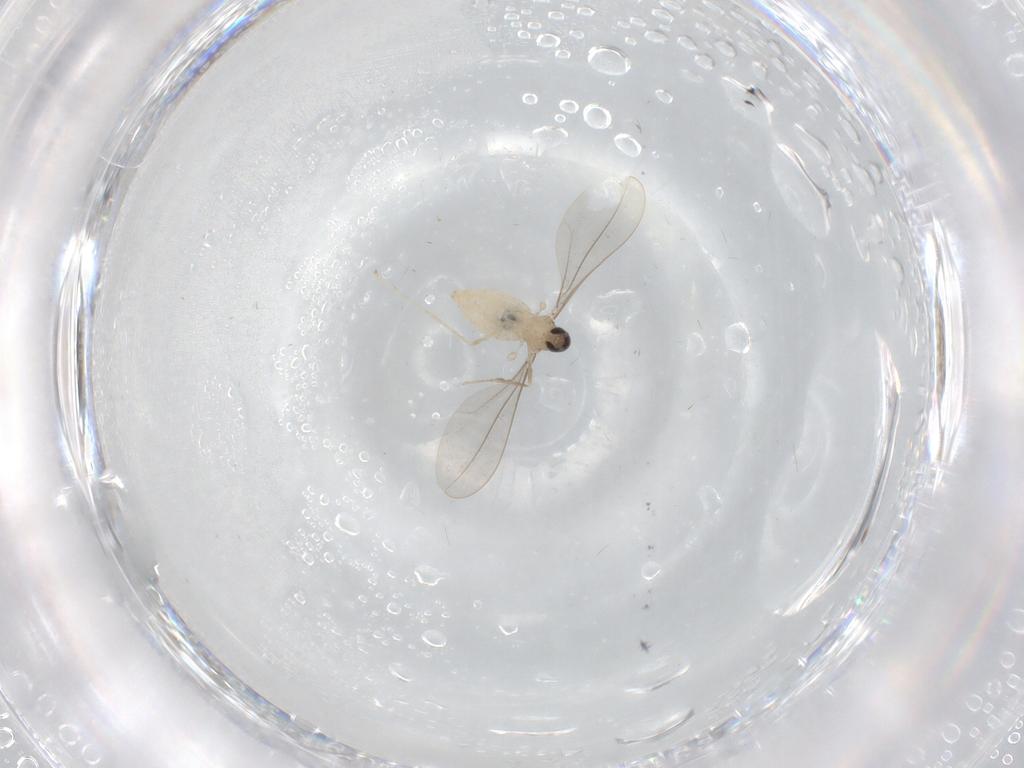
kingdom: Animalia
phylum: Arthropoda
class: Insecta
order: Diptera
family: Cecidomyiidae
